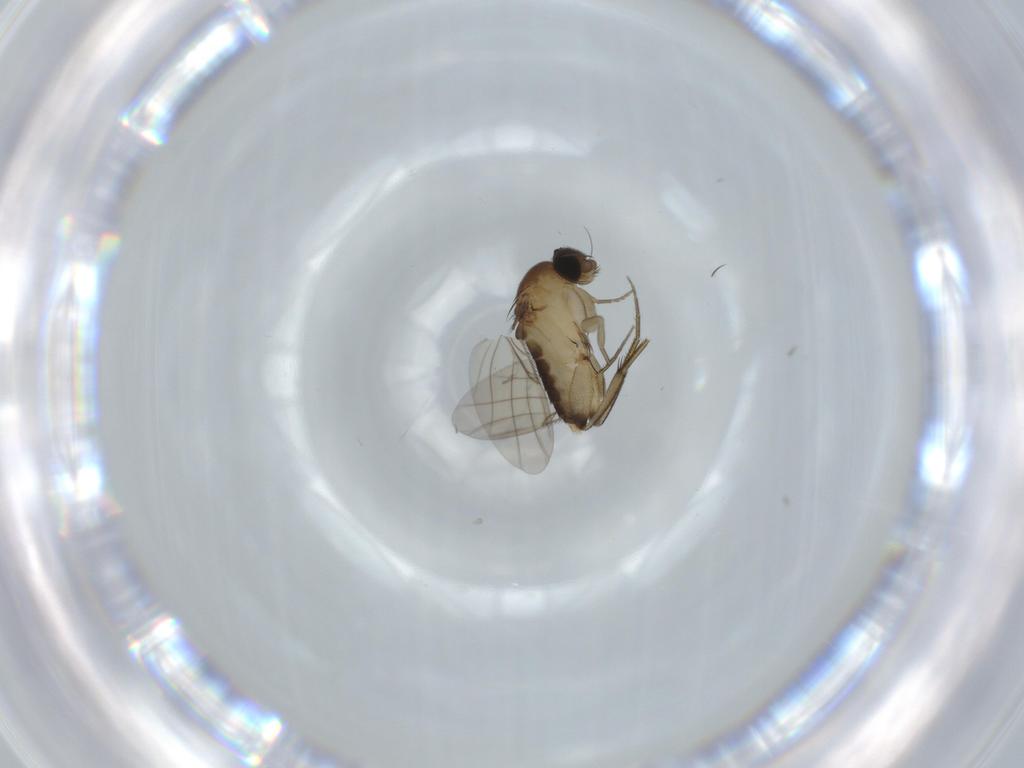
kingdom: Animalia
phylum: Arthropoda
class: Insecta
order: Diptera
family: Phoridae
